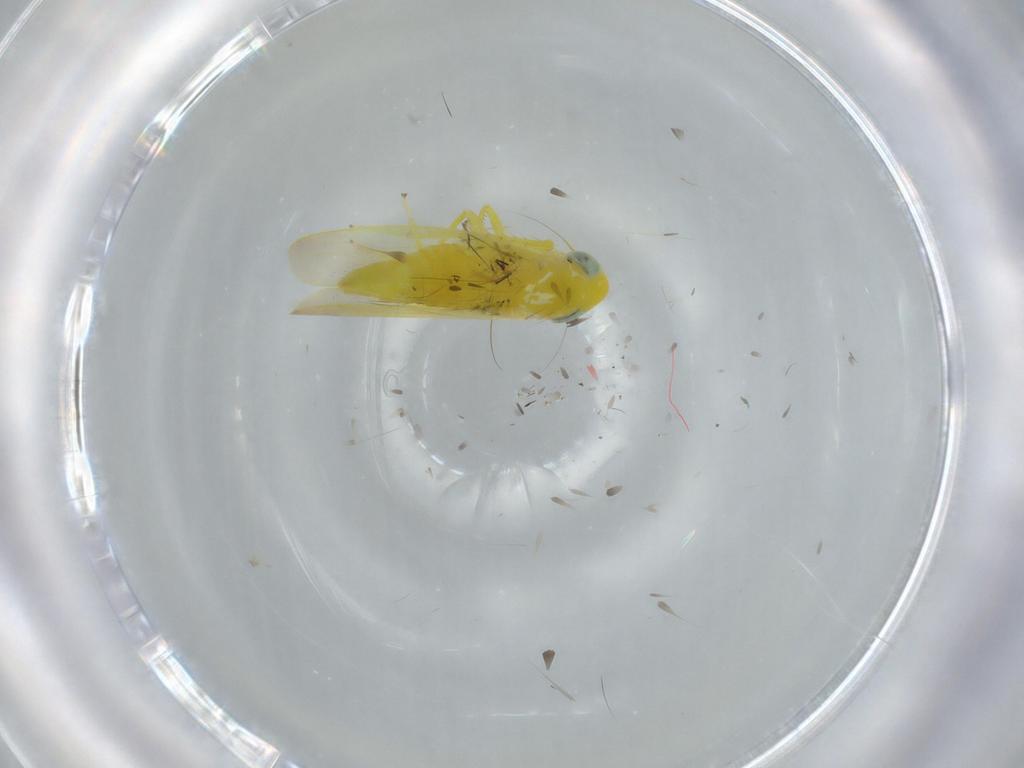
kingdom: Animalia
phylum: Arthropoda
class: Insecta
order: Hemiptera
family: Cicadellidae
